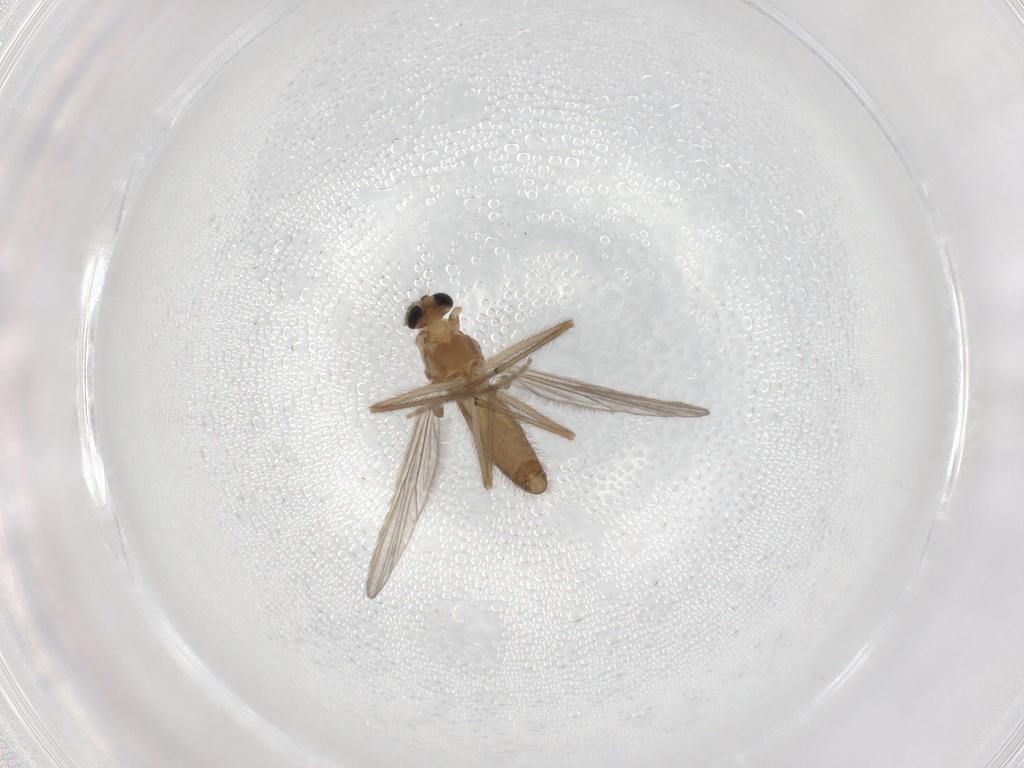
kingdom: Animalia
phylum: Arthropoda
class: Insecta
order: Diptera
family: Chironomidae
